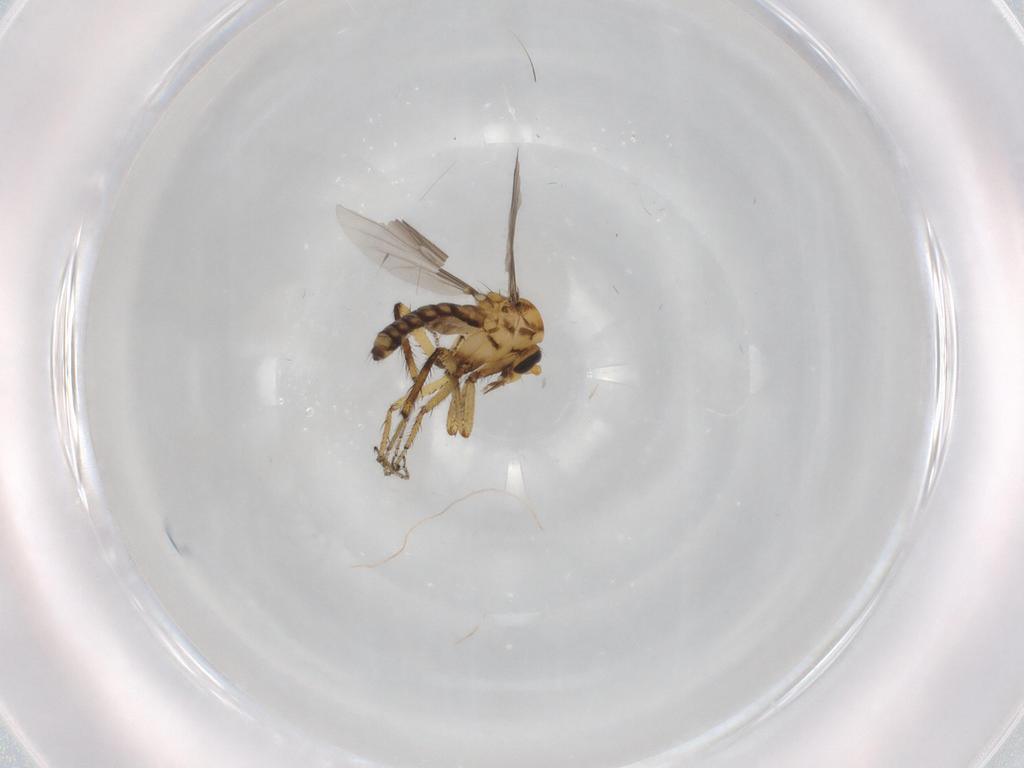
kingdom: Animalia
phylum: Arthropoda
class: Insecta
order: Diptera
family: Ceratopogonidae
